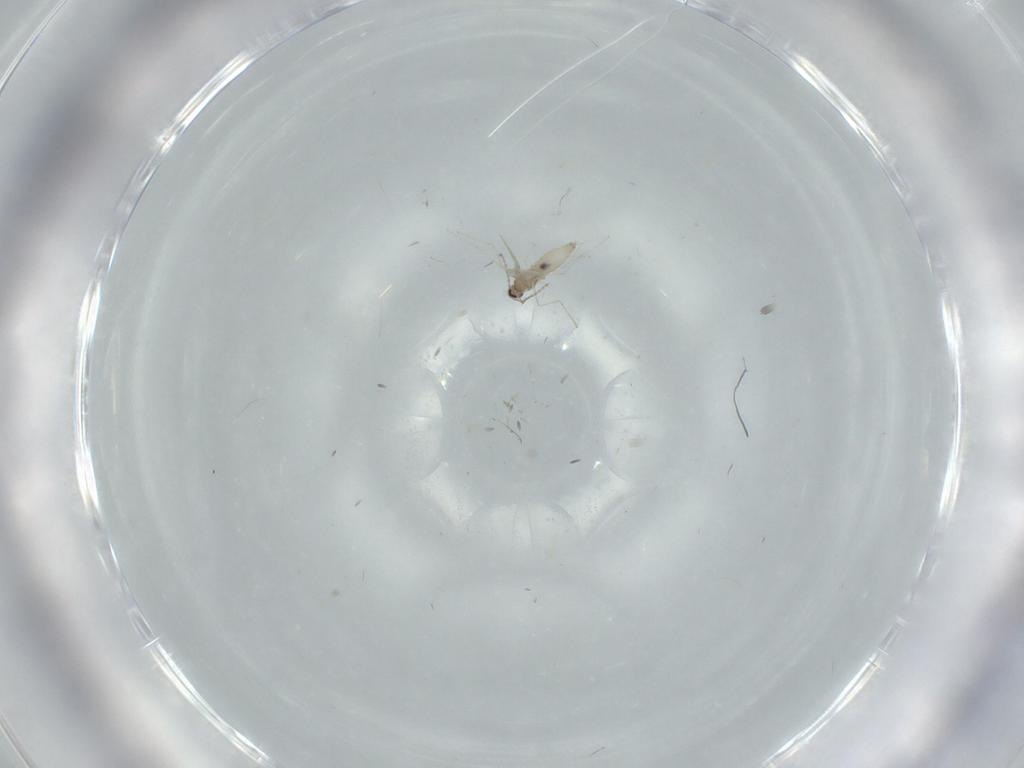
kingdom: Animalia
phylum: Arthropoda
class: Insecta
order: Diptera
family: Cecidomyiidae
